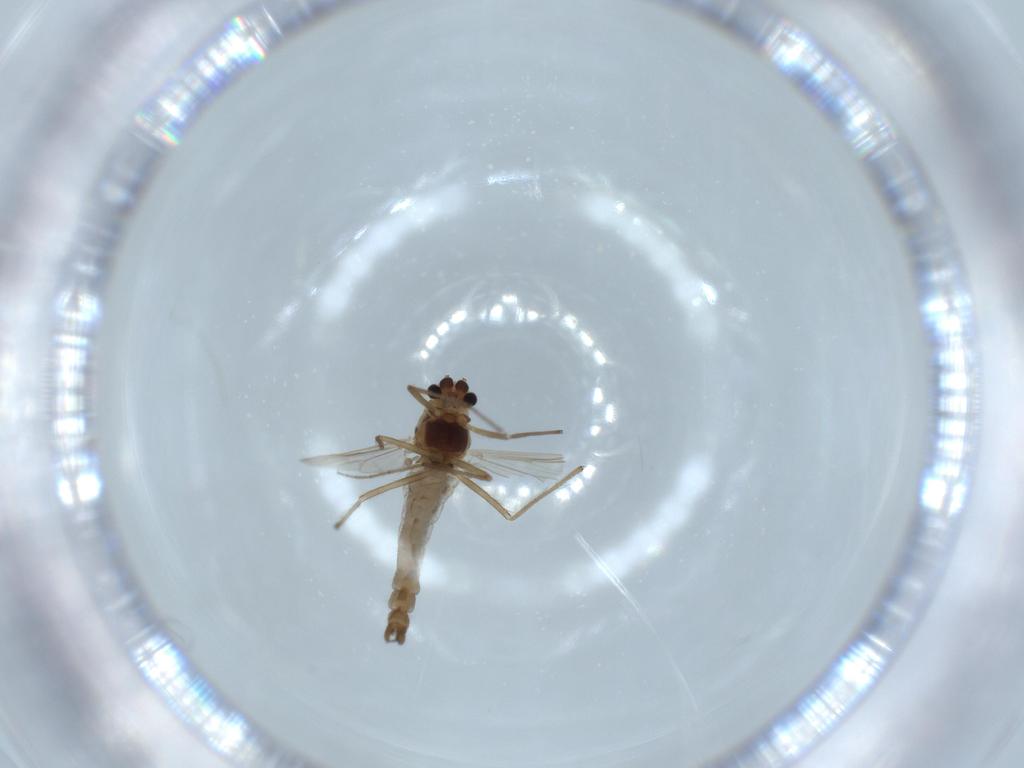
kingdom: Animalia
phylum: Arthropoda
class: Insecta
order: Diptera
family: Chironomidae
